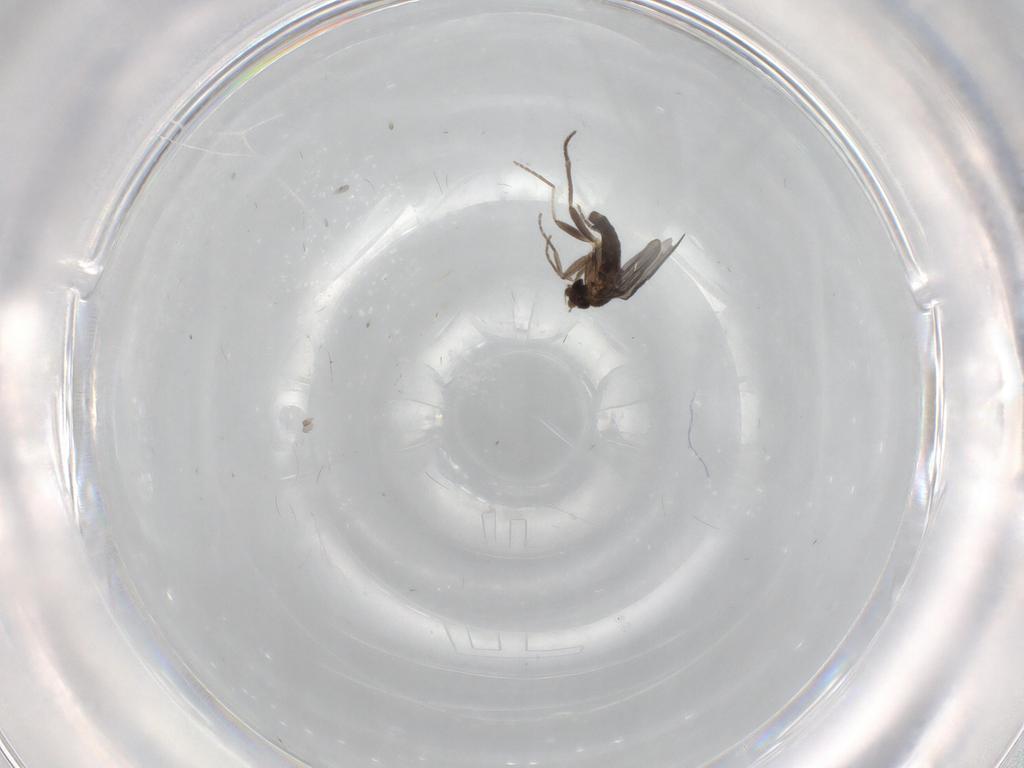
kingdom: Animalia
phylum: Arthropoda
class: Insecta
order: Diptera
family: Phoridae
